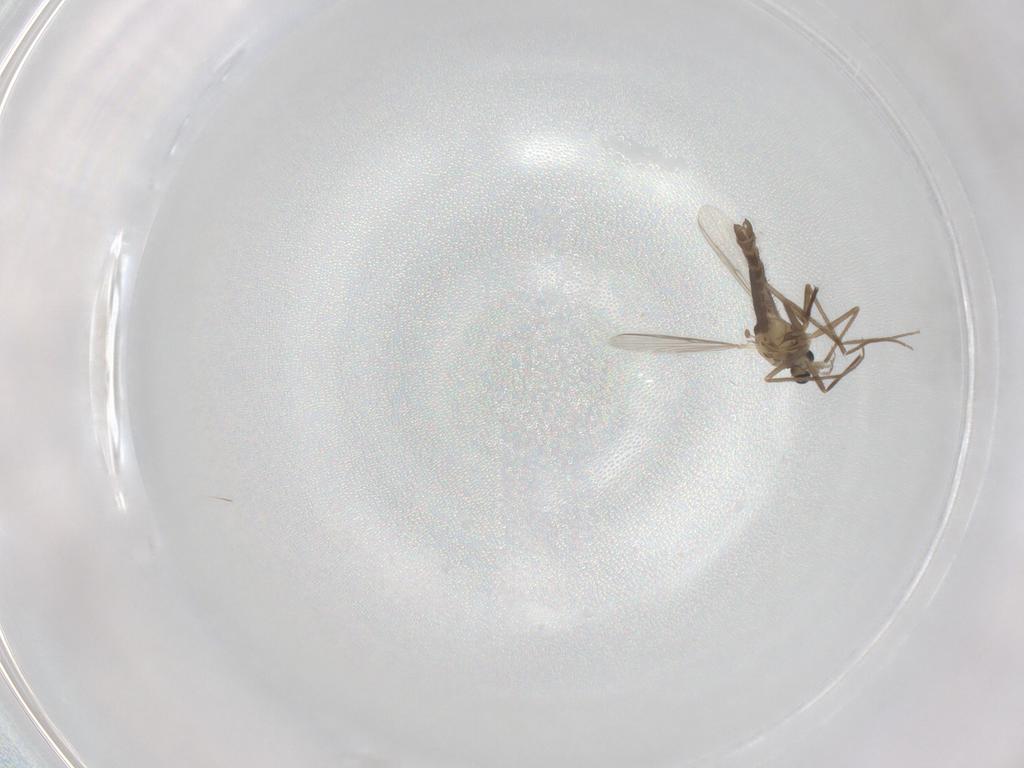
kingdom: Animalia
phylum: Arthropoda
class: Insecta
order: Diptera
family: Chironomidae
